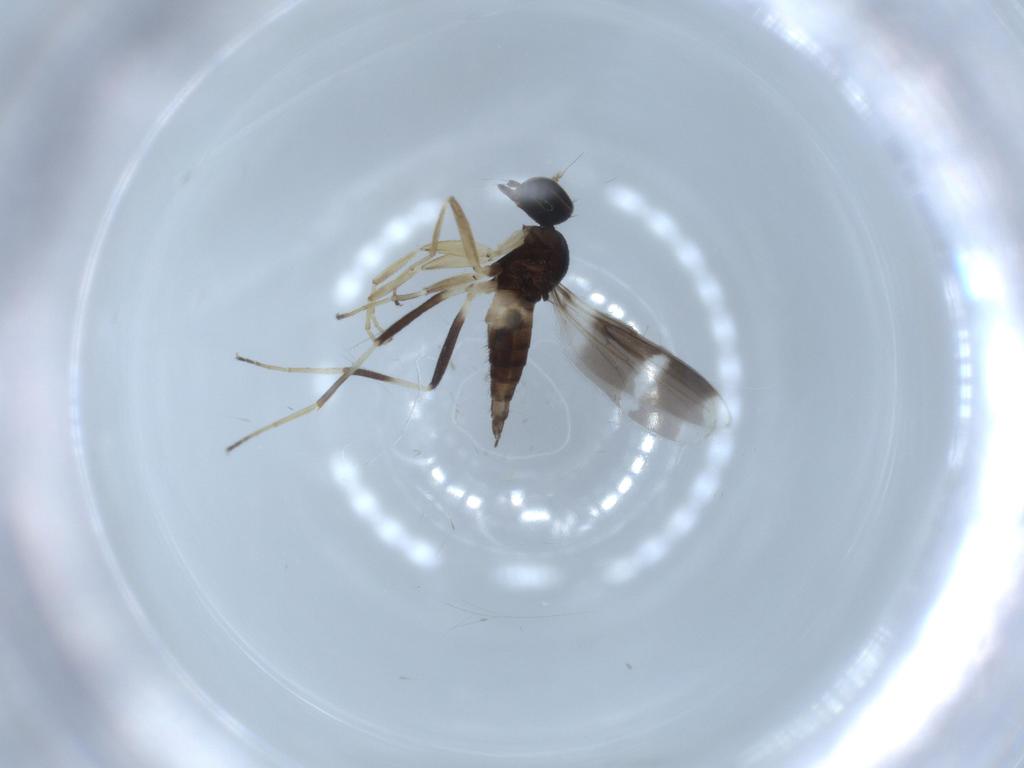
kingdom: Animalia
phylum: Arthropoda
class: Insecta
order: Diptera
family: Hybotidae
